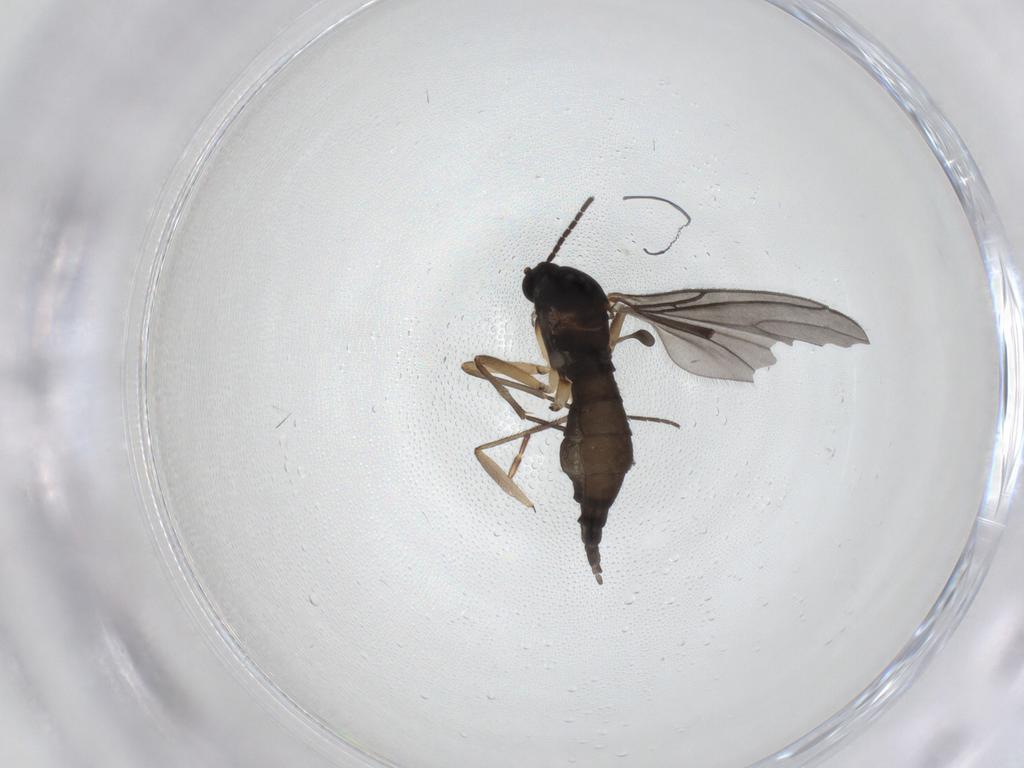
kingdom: Animalia
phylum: Arthropoda
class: Insecta
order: Diptera
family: Sciaridae
